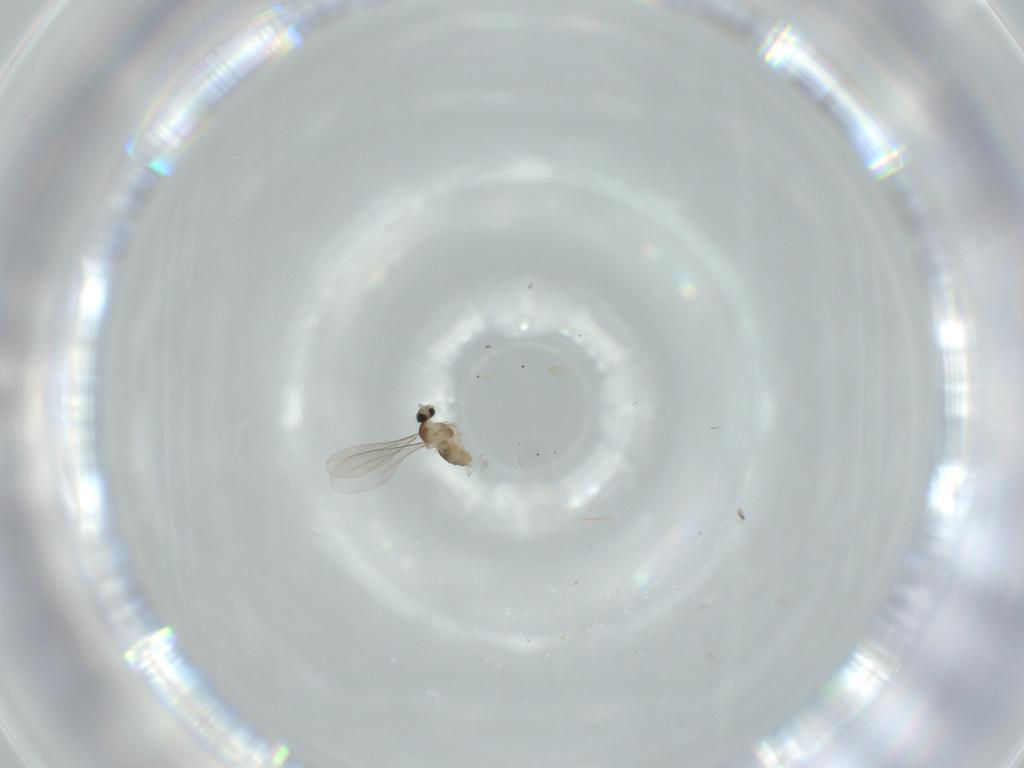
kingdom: Animalia
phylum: Arthropoda
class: Insecta
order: Diptera
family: Cecidomyiidae
